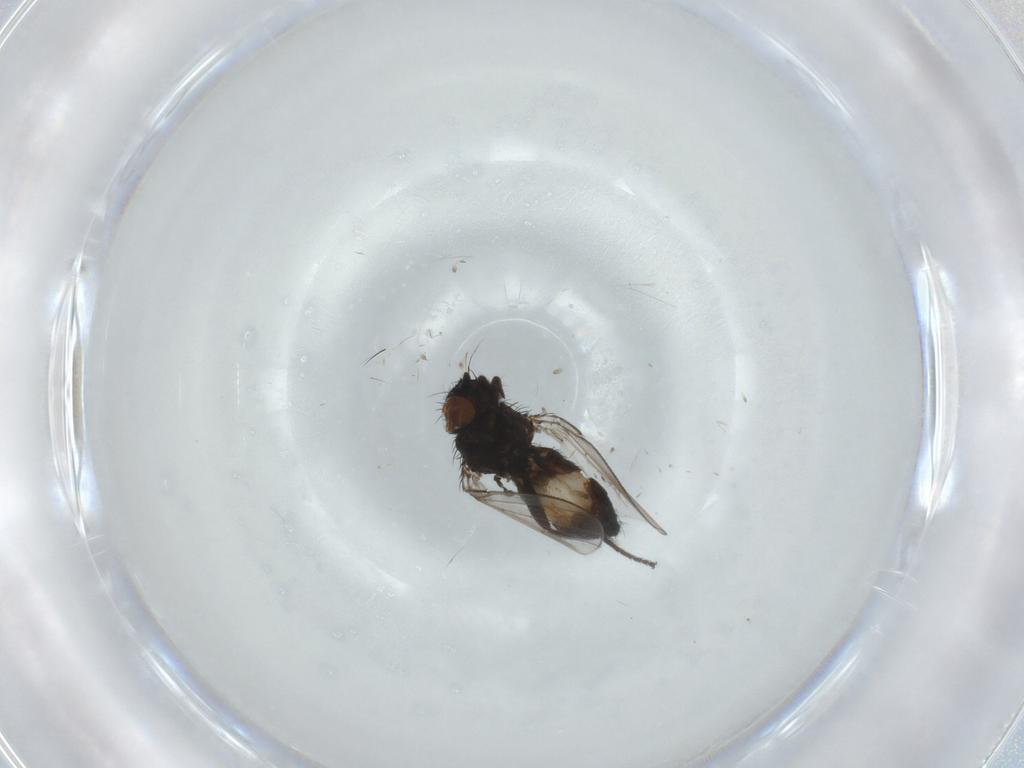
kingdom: Animalia
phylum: Arthropoda
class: Insecta
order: Diptera
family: Milichiidae
